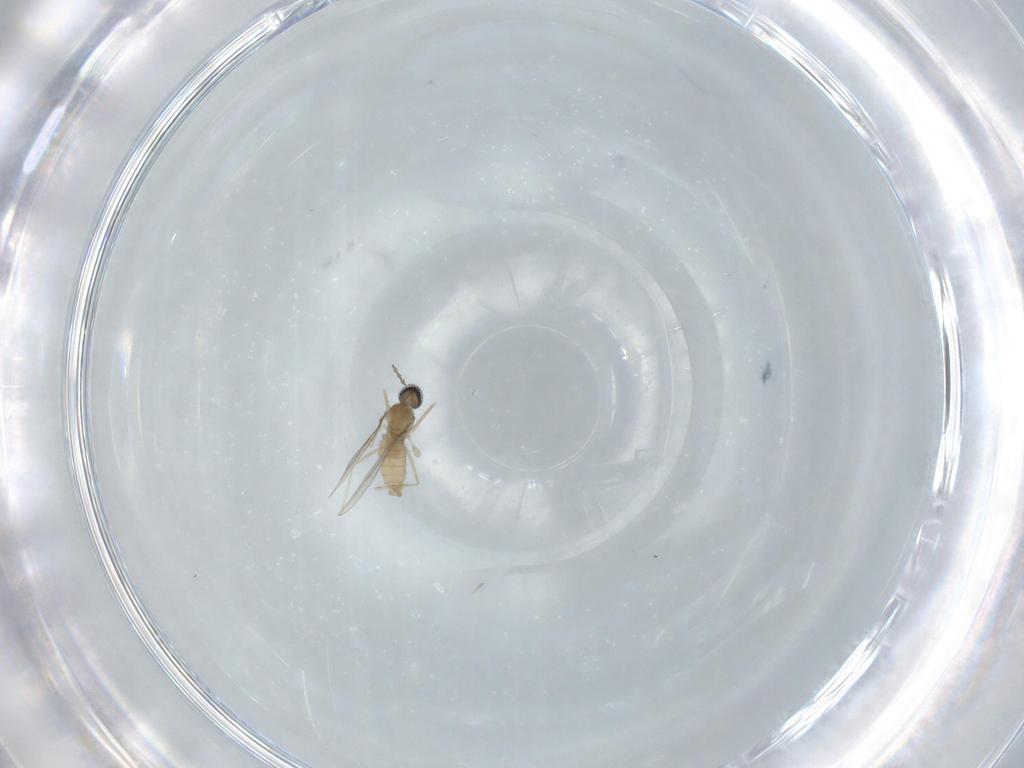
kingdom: Animalia
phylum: Arthropoda
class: Insecta
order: Diptera
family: Cecidomyiidae
